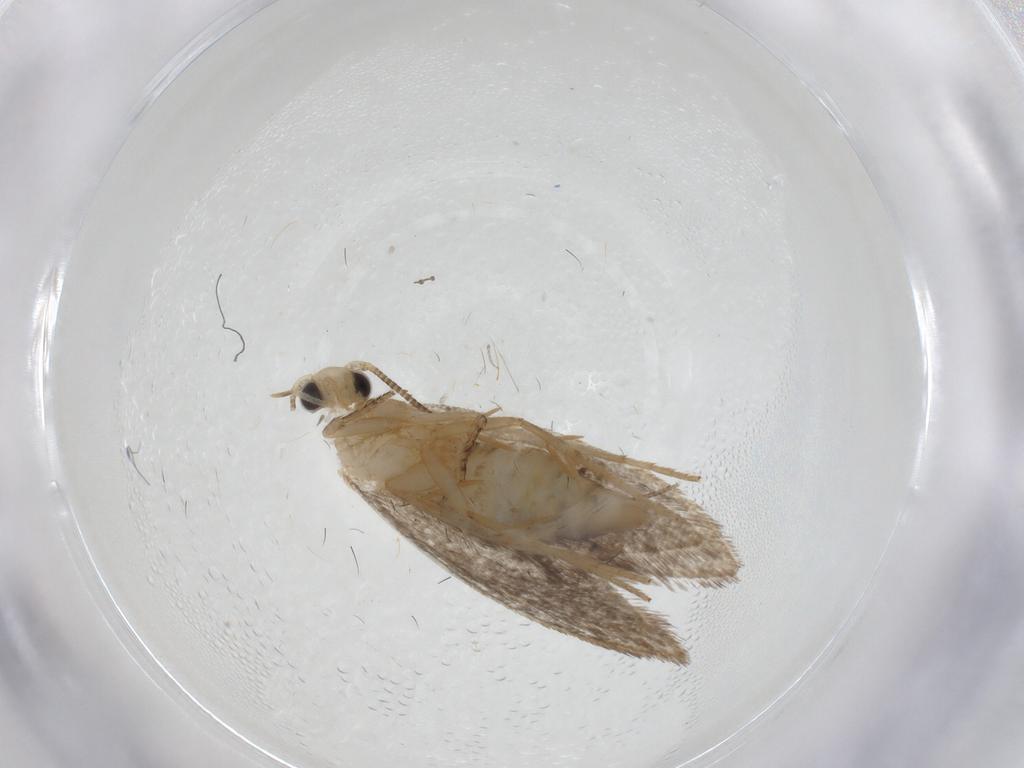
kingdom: Animalia
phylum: Arthropoda
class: Insecta
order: Lepidoptera
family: Tineidae
